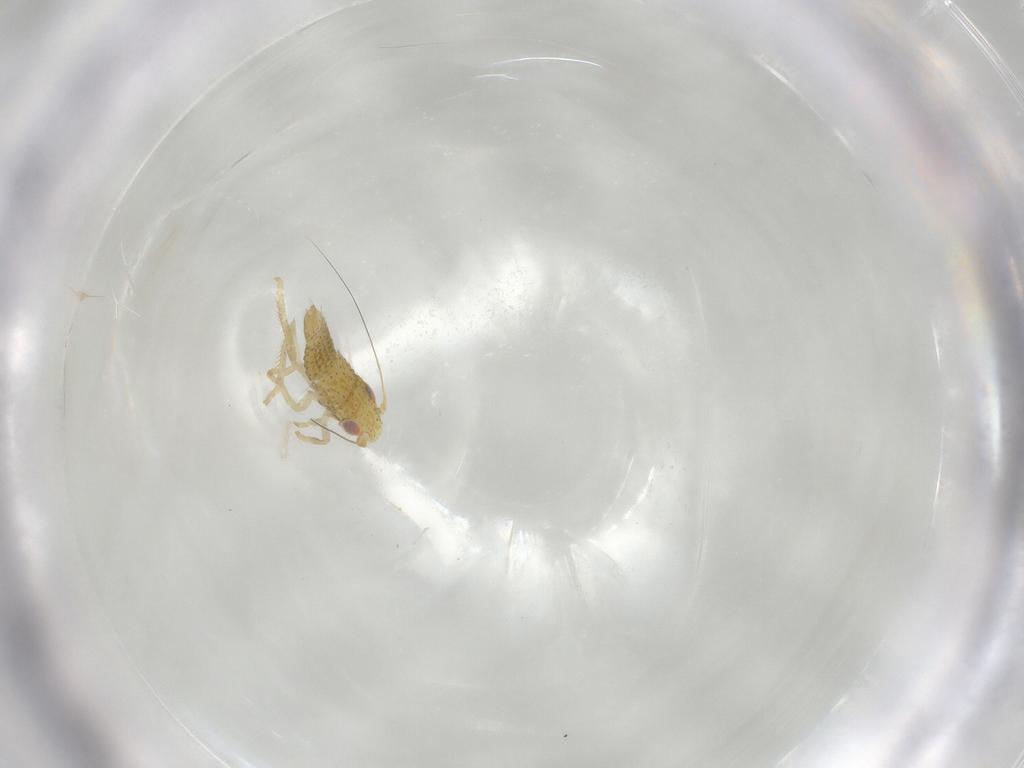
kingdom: Animalia
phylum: Arthropoda
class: Insecta
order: Hemiptera
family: Cicadellidae
